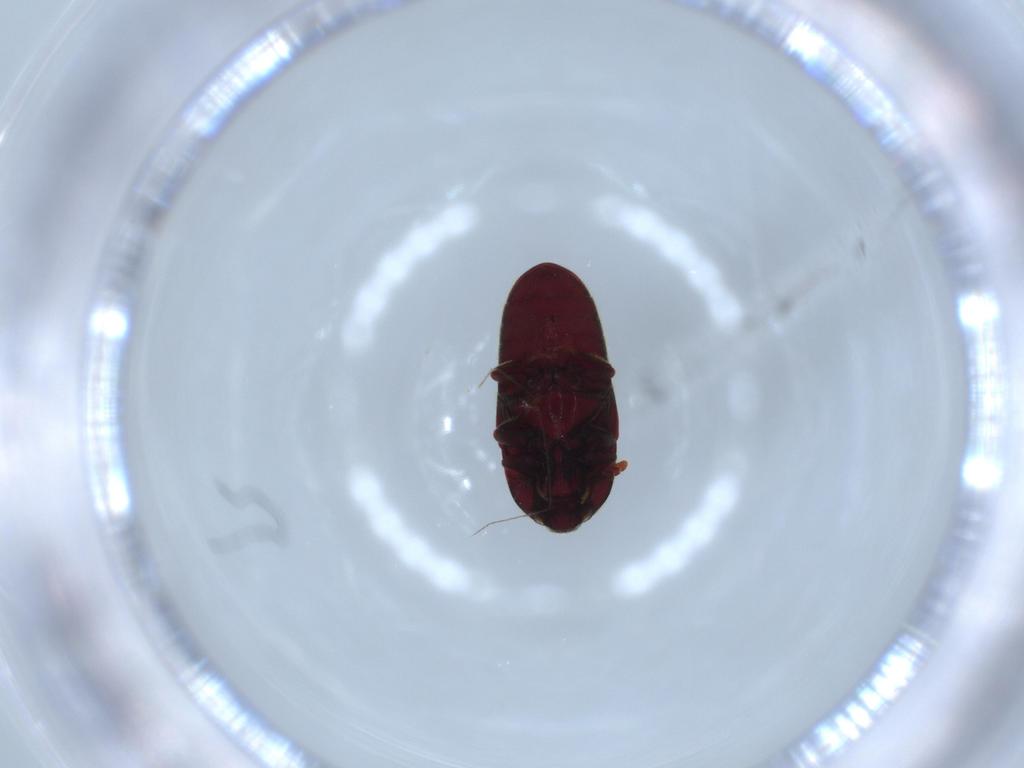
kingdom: Animalia
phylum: Arthropoda
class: Insecta
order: Coleoptera
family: Throscidae
